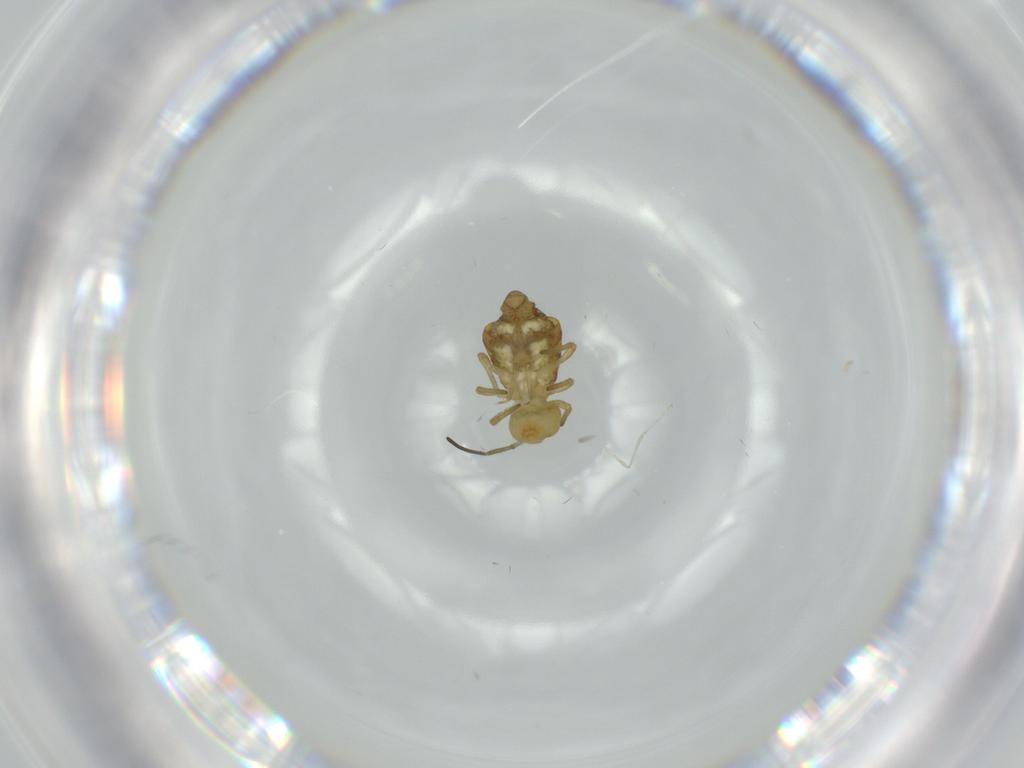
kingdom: Animalia
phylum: Arthropoda
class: Collembola
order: Symphypleona
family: Sminthuridae
